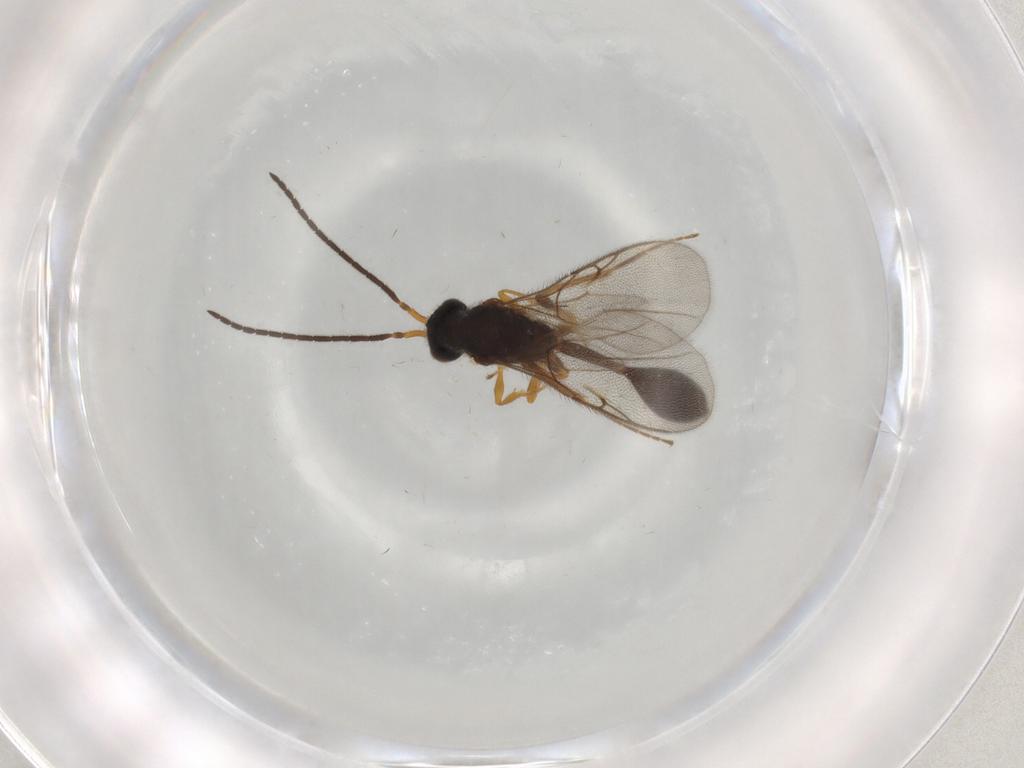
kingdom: Animalia
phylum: Arthropoda
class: Insecta
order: Hymenoptera
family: Diapriidae
